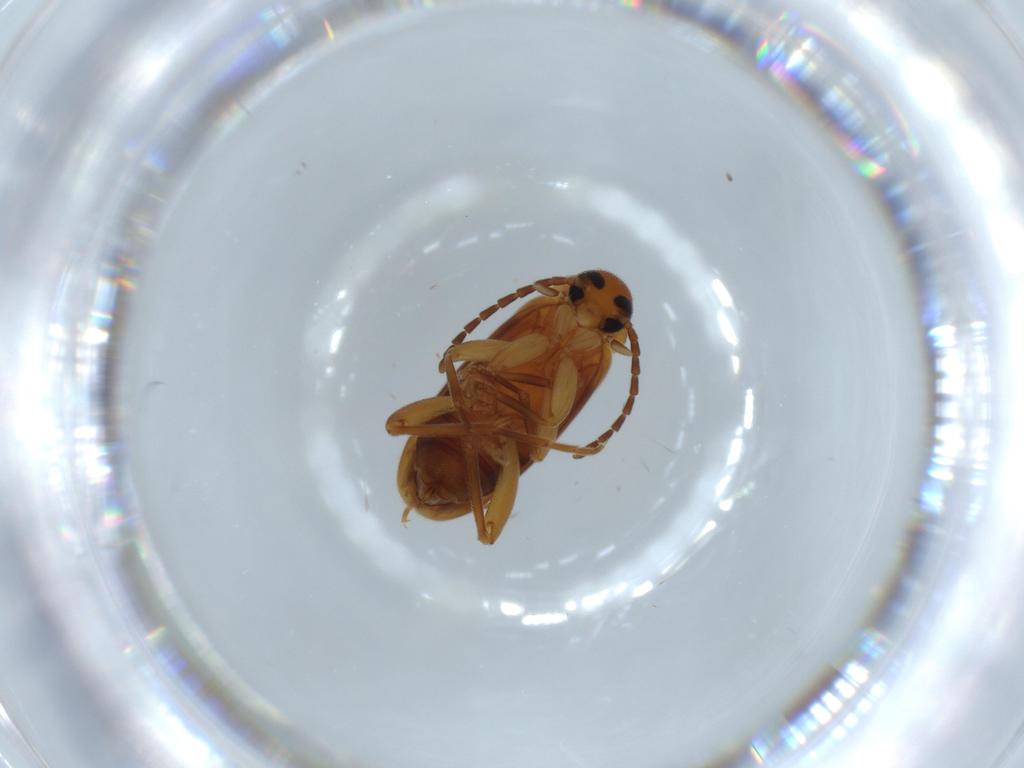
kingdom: Animalia
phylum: Arthropoda
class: Insecta
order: Coleoptera
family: Scraptiidae
